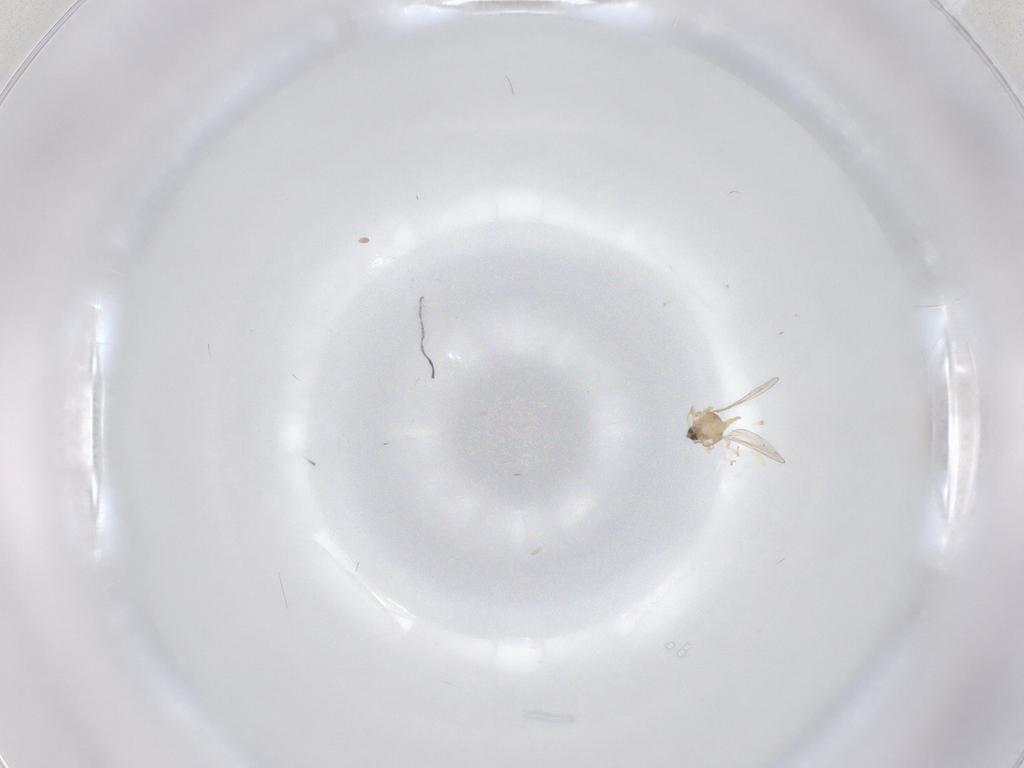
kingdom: Animalia
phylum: Arthropoda
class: Insecta
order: Diptera
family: Cecidomyiidae
